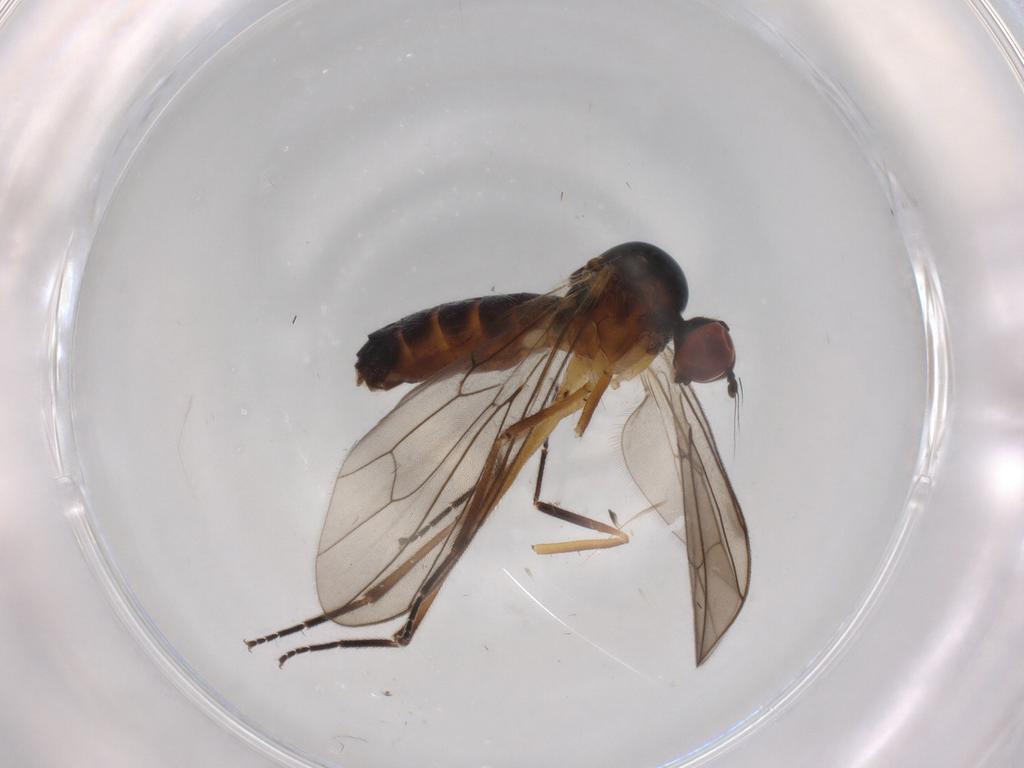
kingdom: Animalia
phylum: Arthropoda
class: Insecta
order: Diptera
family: Hybotidae
